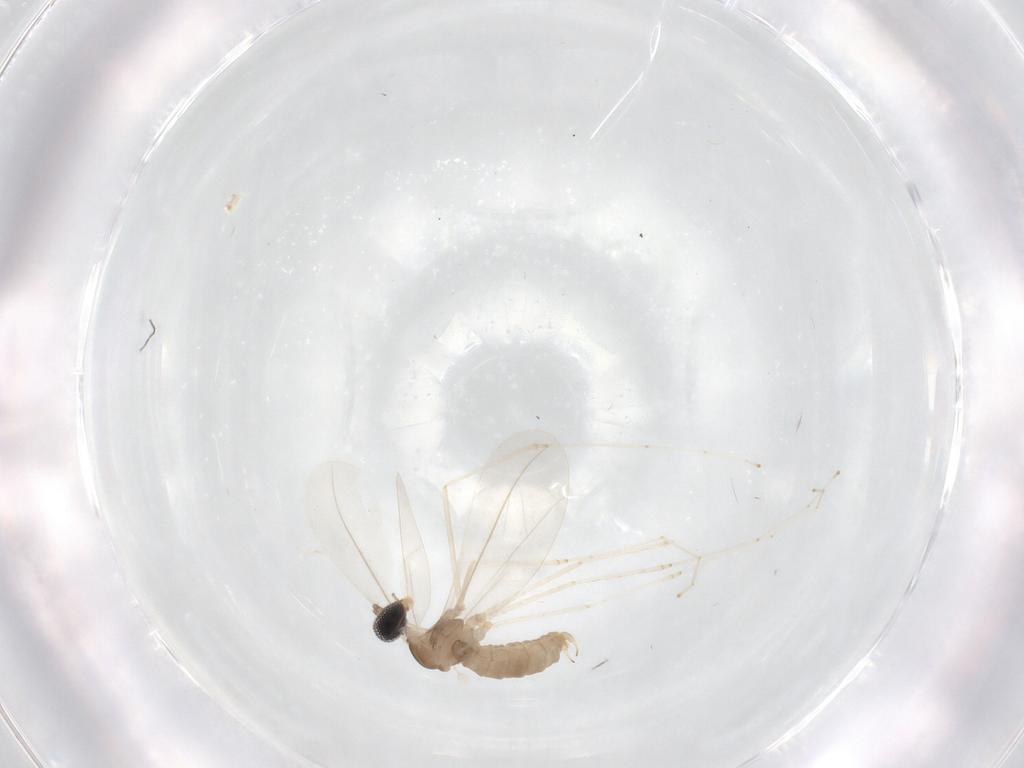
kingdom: Animalia
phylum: Arthropoda
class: Insecta
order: Diptera
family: Cecidomyiidae
